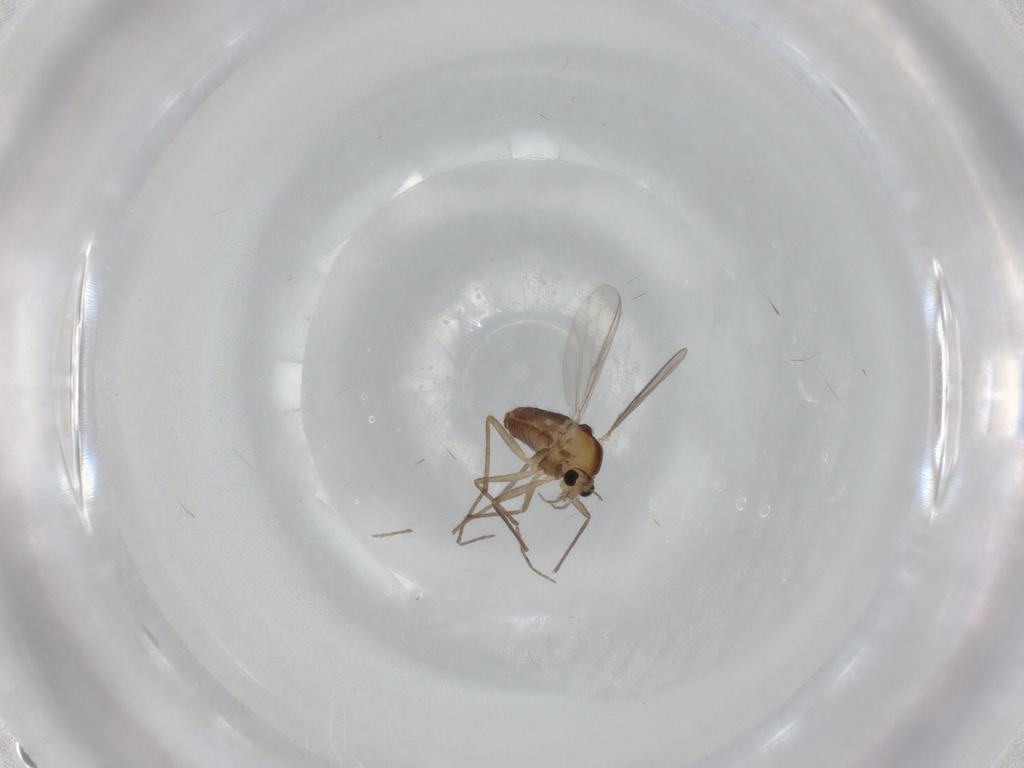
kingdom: Animalia
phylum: Arthropoda
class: Insecta
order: Diptera
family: Chironomidae
